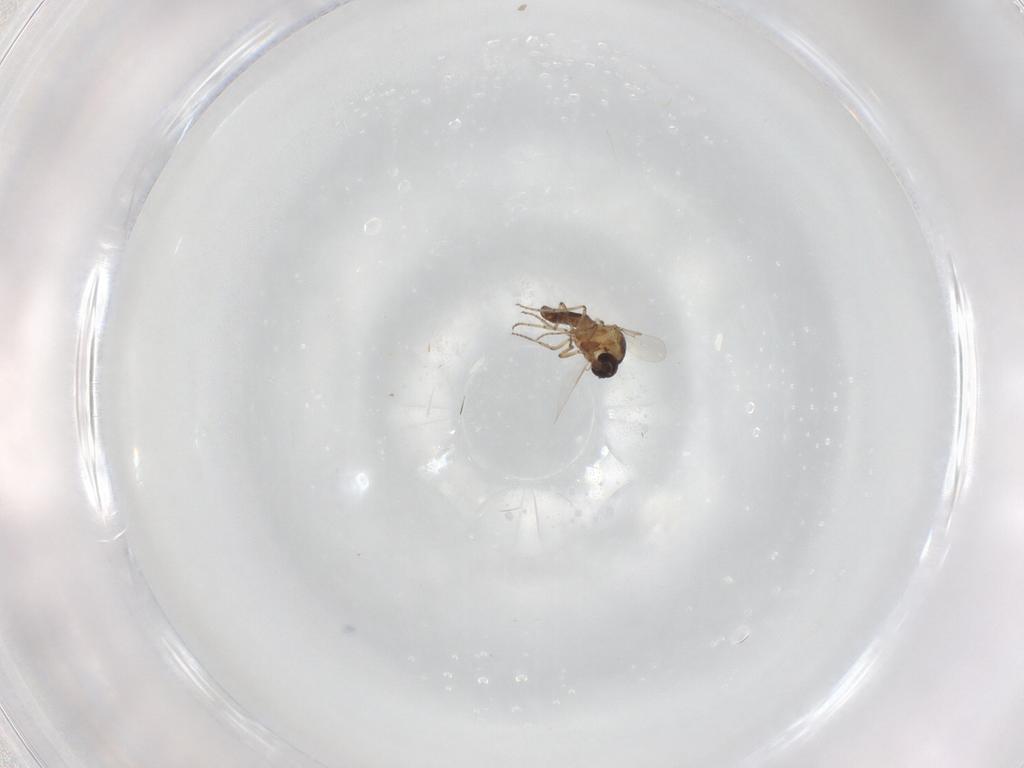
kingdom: Animalia
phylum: Arthropoda
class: Insecta
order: Diptera
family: Ceratopogonidae
